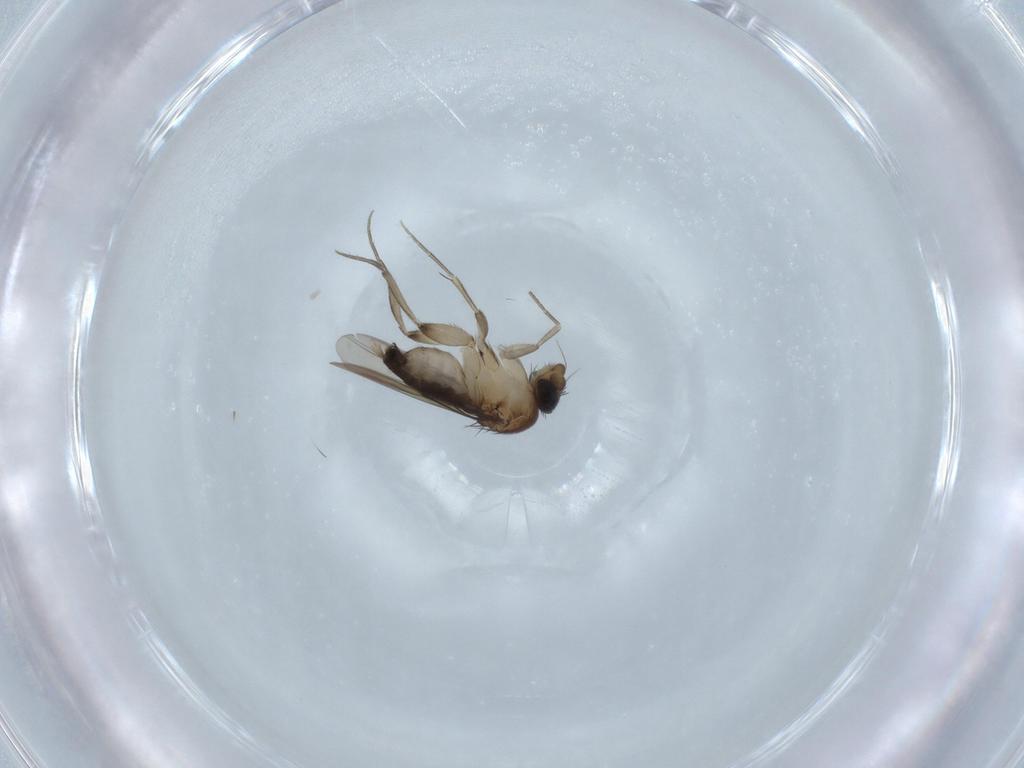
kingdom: Animalia
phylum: Arthropoda
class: Insecta
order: Diptera
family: Phoridae
